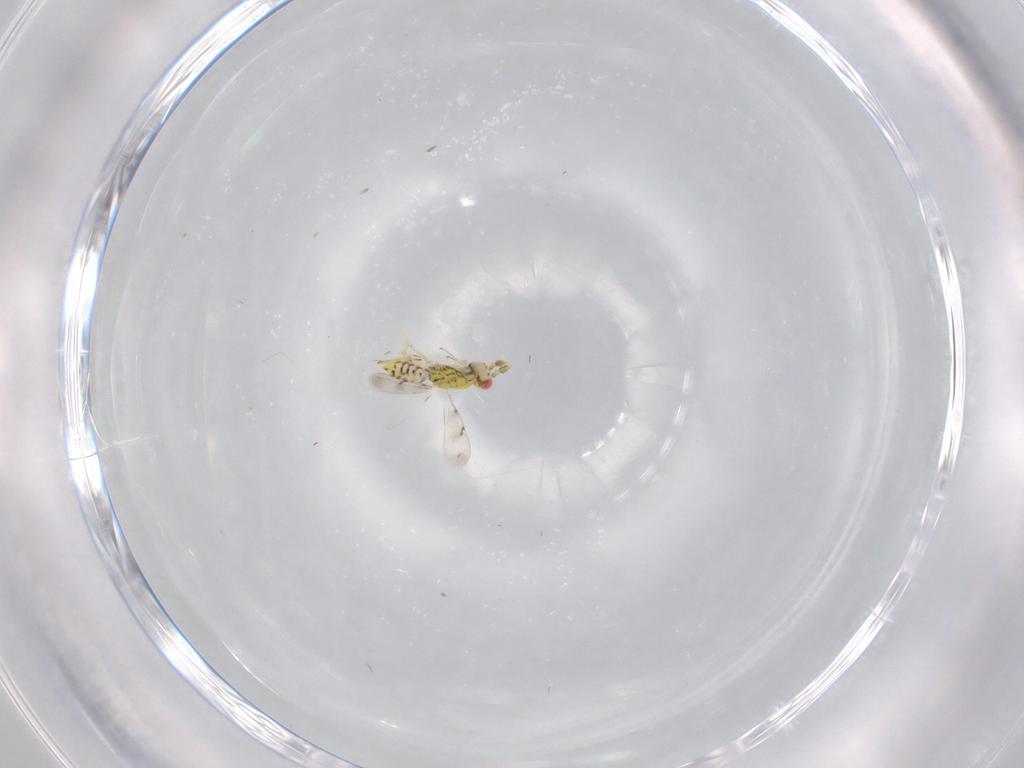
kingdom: Animalia
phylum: Arthropoda
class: Insecta
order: Hymenoptera
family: Eulophidae
